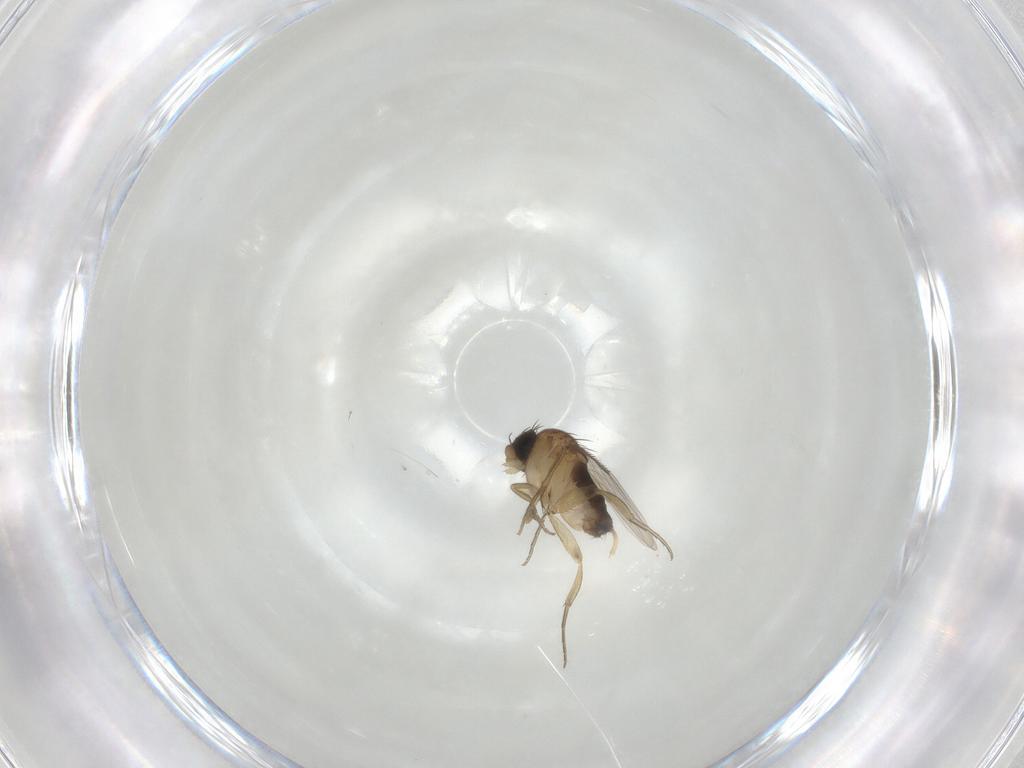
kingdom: Animalia
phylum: Arthropoda
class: Insecta
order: Diptera
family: Phoridae
